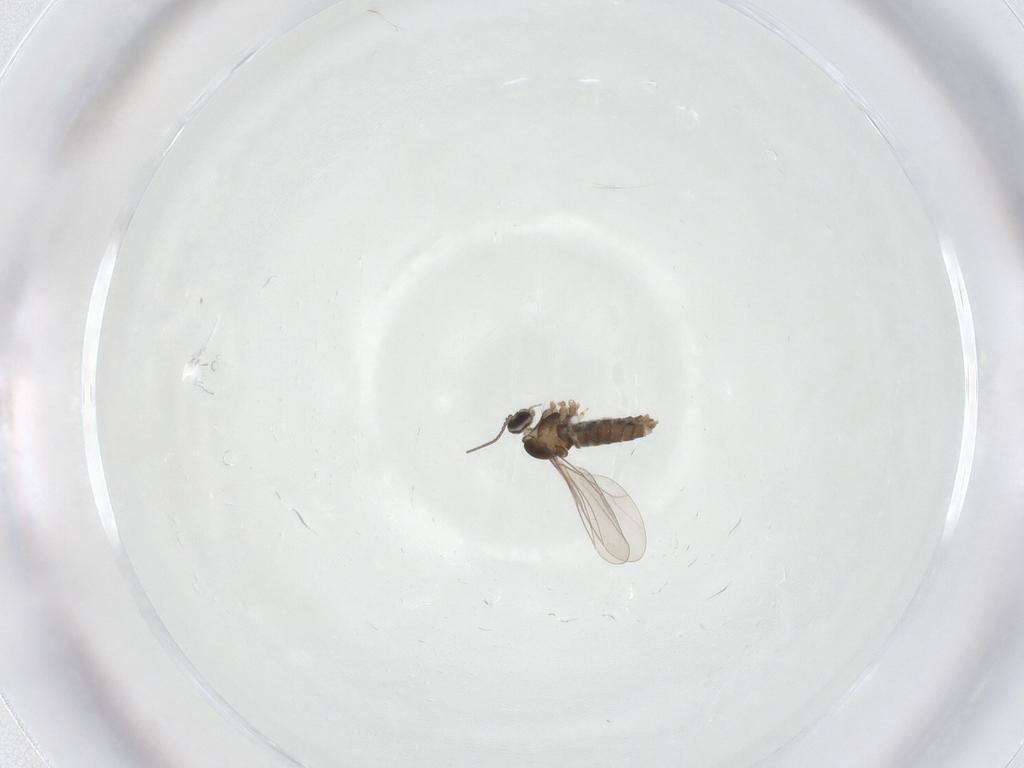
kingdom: Animalia
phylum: Arthropoda
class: Insecta
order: Diptera
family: Cecidomyiidae
